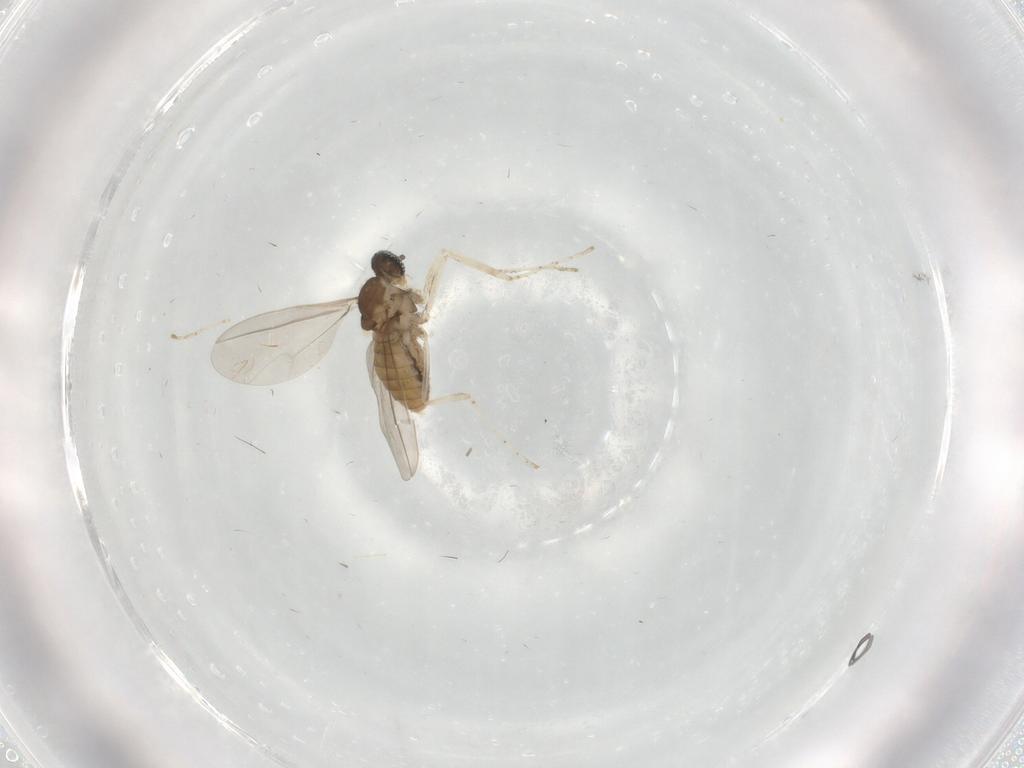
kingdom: Animalia
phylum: Arthropoda
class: Insecta
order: Diptera
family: Cecidomyiidae
